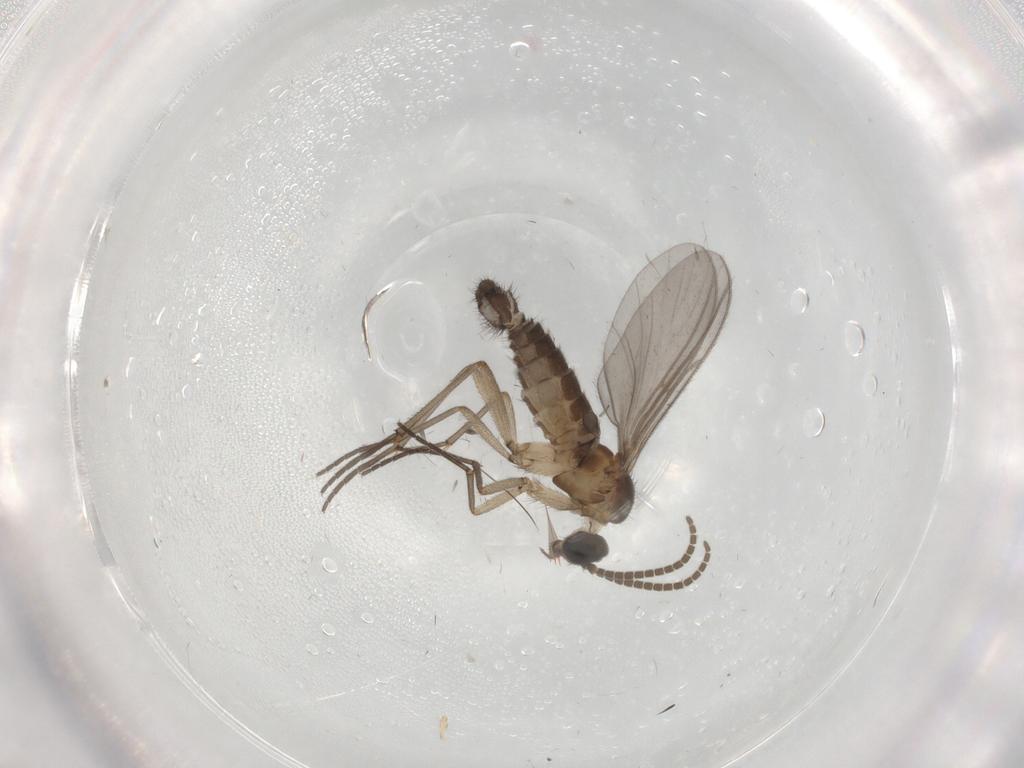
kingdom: Animalia
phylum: Arthropoda
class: Insecta
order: Diptera
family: Sciaridae
